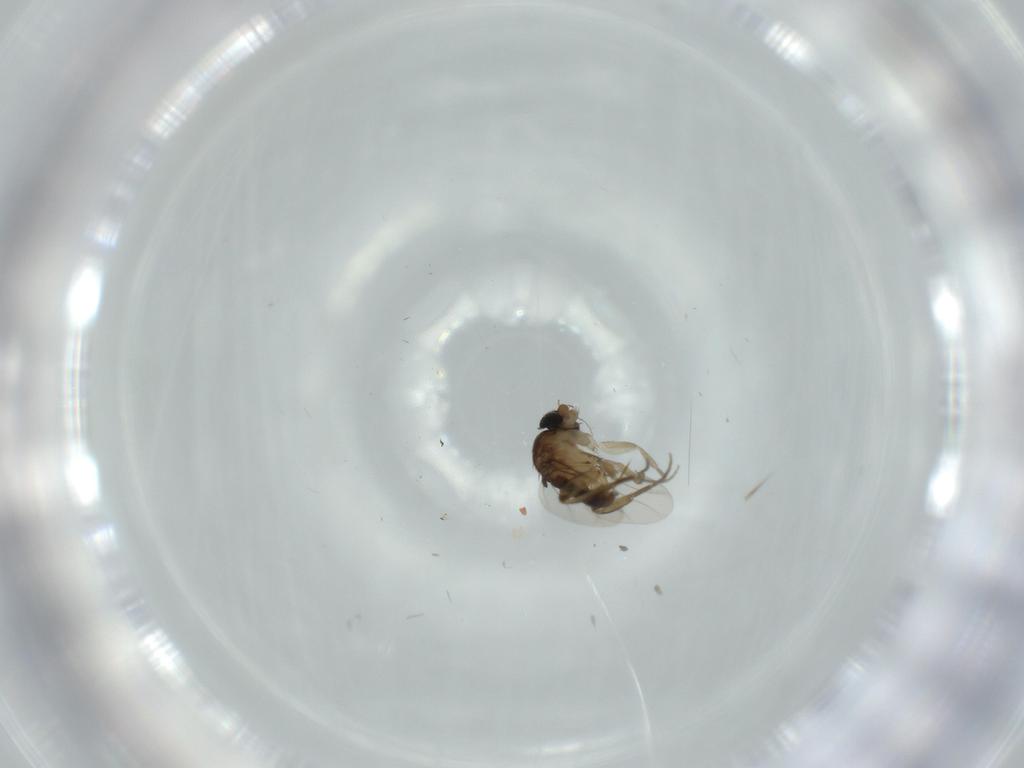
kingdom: Animalia
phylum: Arthropoda
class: Insecta
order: Diptera
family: Phoridae
